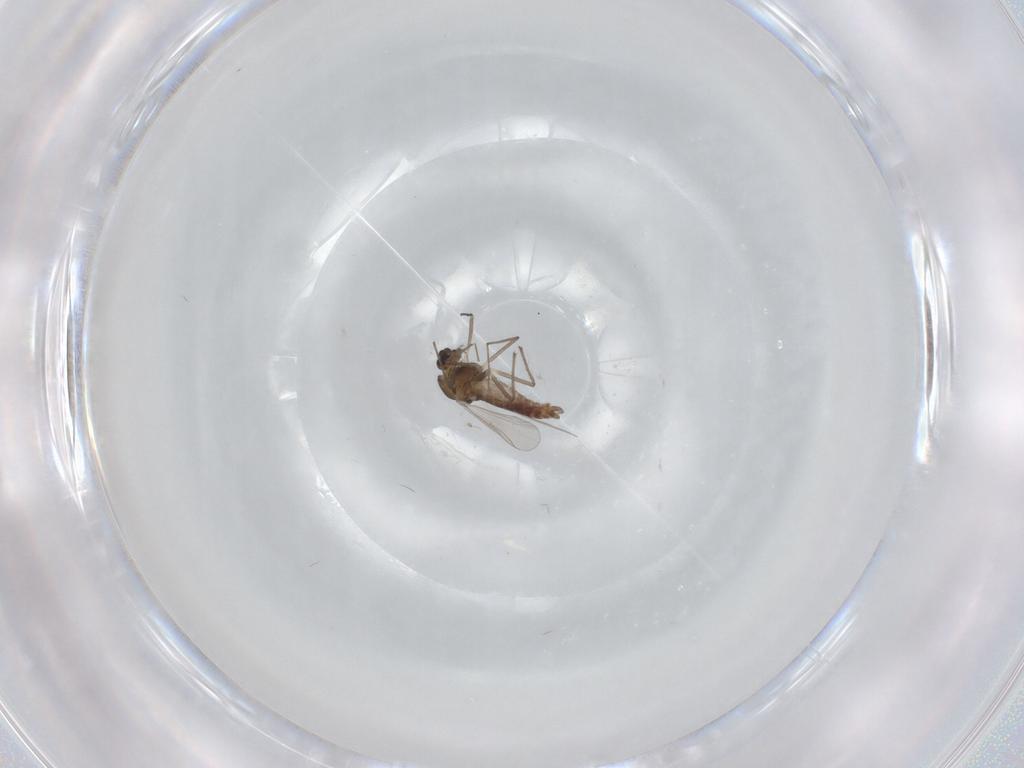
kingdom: Animalia
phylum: Arthropoda
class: Insecta
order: Diptera
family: Chironomidae
